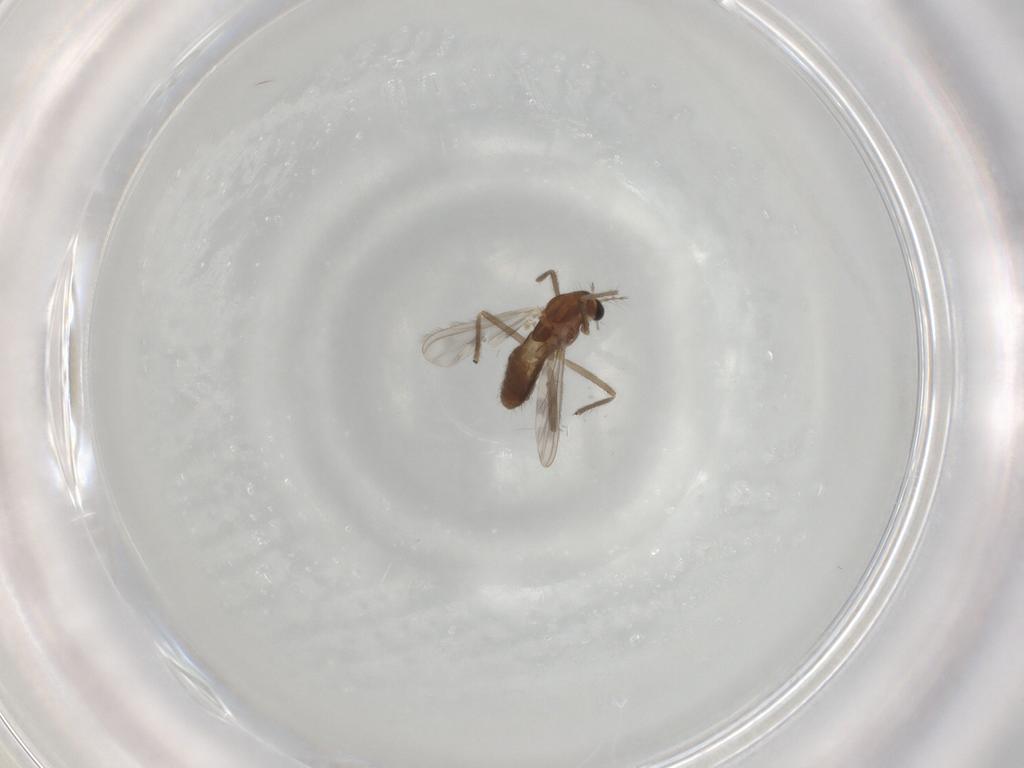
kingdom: Animalia
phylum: Arthropoda
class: Insecta
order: Diptera
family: Chironomidae
